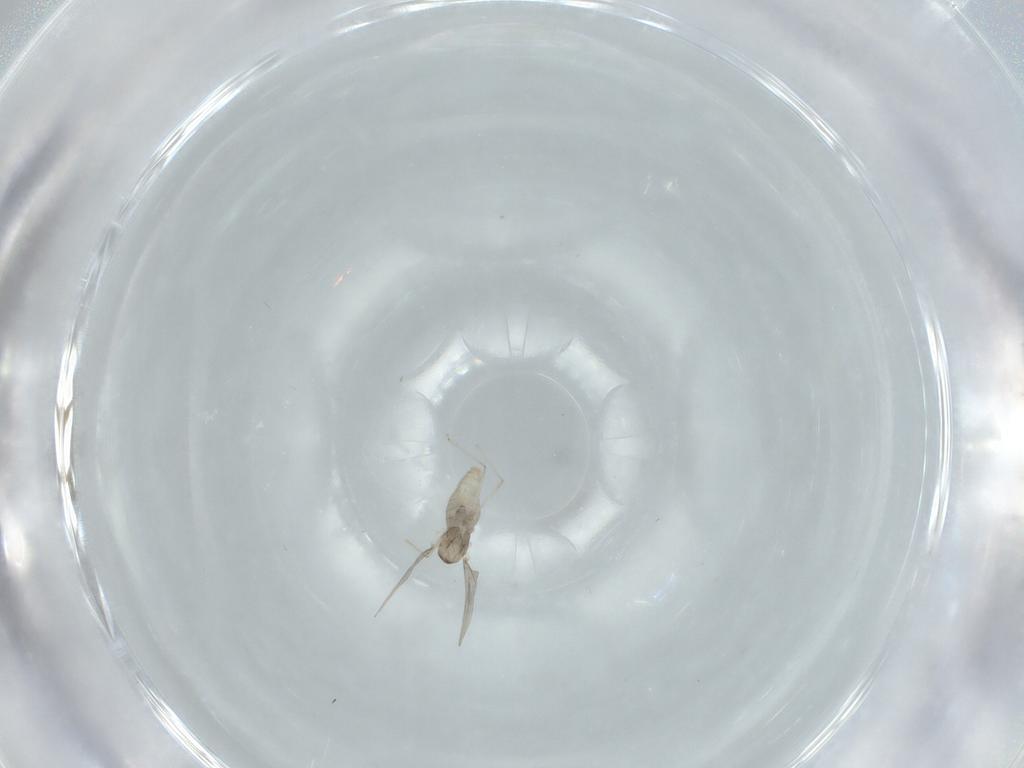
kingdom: Animalia
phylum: Arthropoda
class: Insecta
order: Diptera
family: Cecidomyiidae
